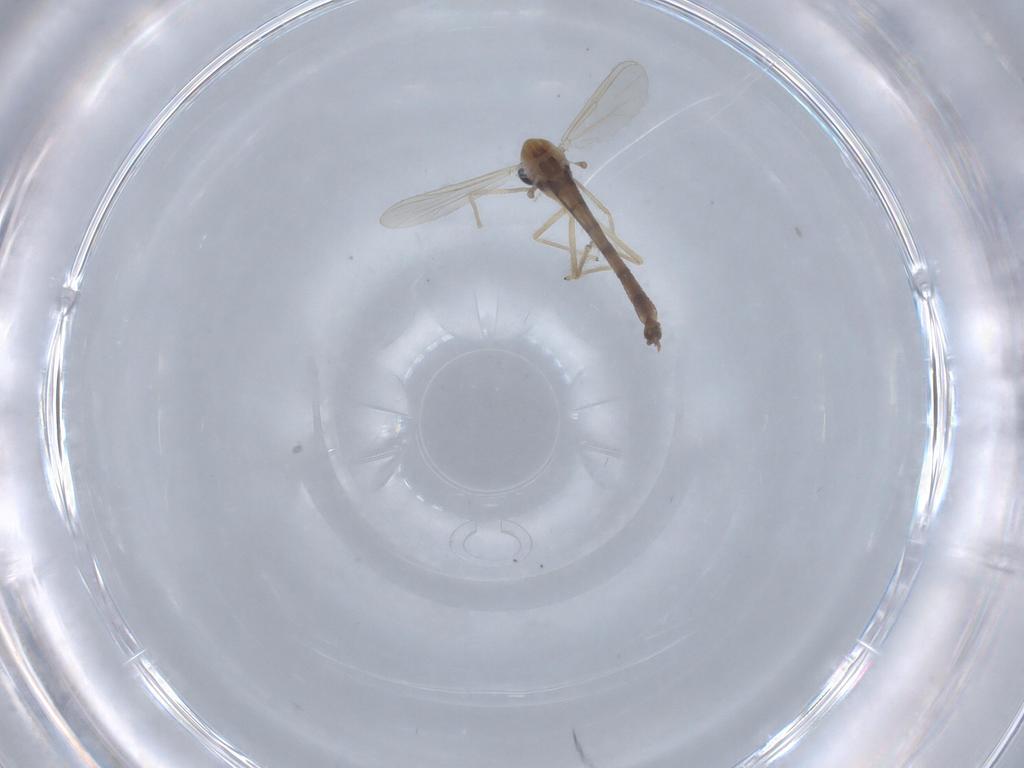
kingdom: Animalia
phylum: Arthropoda
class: Insecta
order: Diptera
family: Chironomidae
